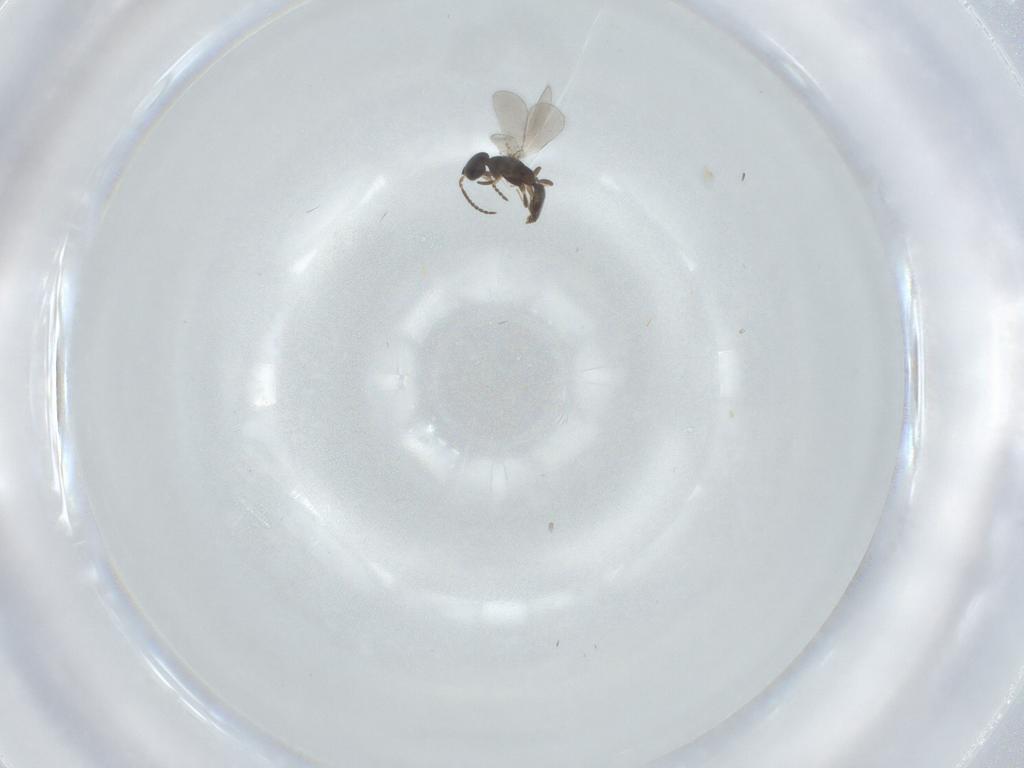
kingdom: Animalia
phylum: Arthropoda
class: Insecta
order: Hymenoptera
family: Bethylidae
